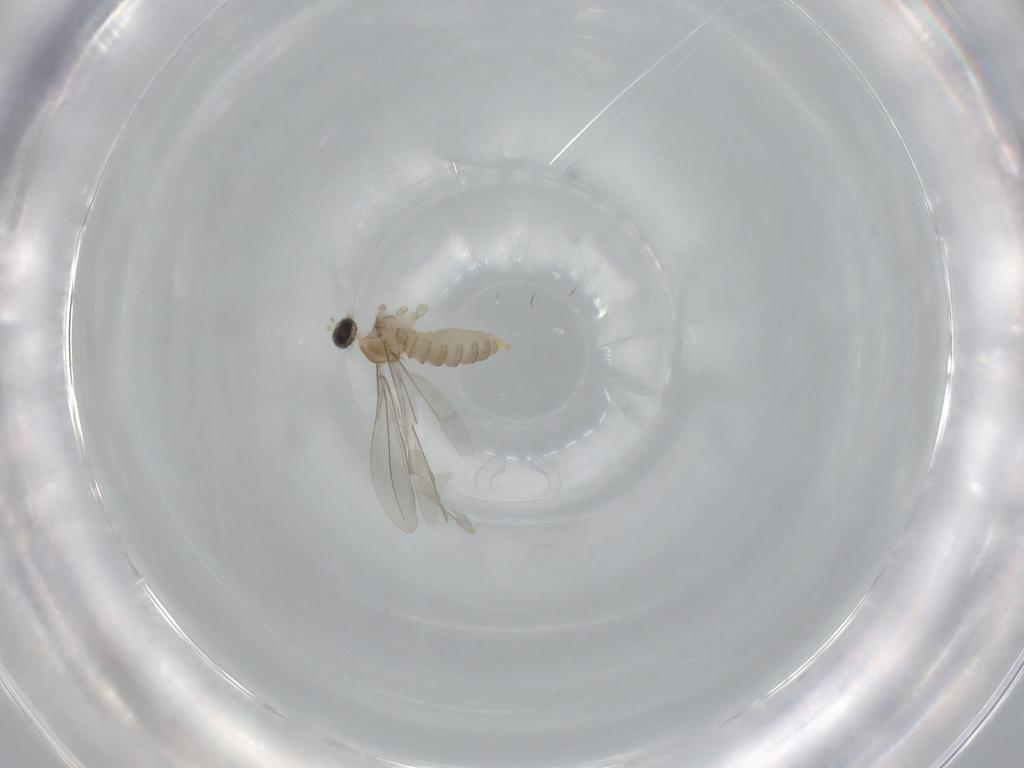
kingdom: Animalia
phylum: Arthropoda
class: Insecta
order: Diptera
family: Cecidomyiidae
